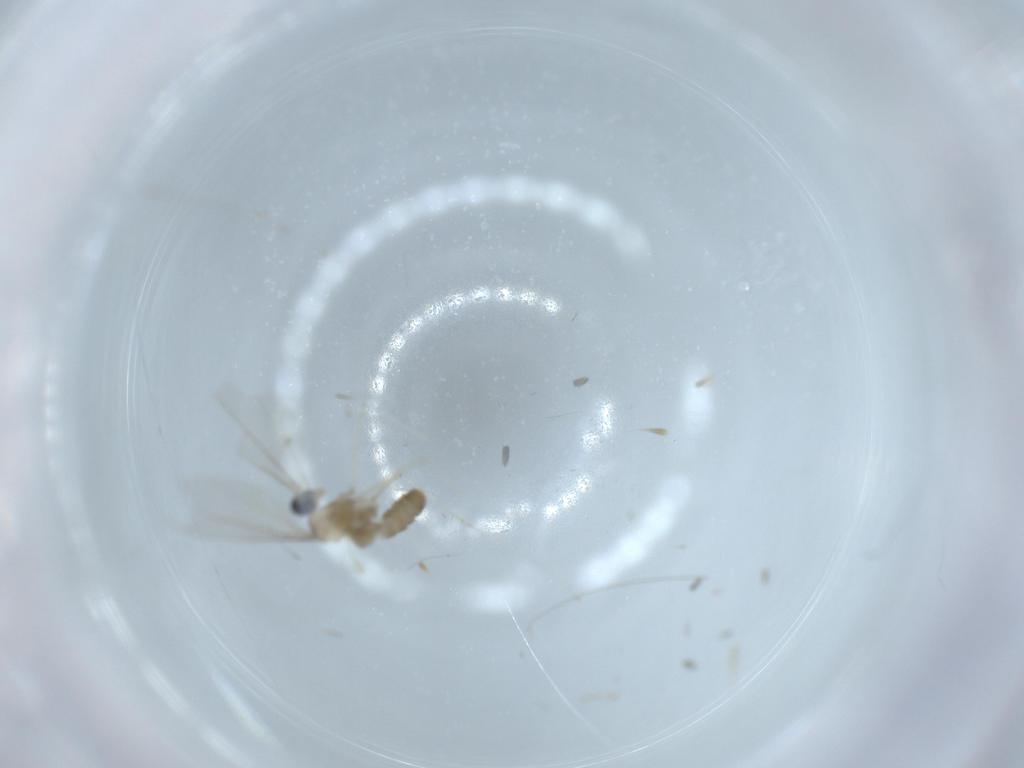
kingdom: Animalia
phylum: Arthropoda
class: Insecta
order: Diptera
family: Cecidomyiidae
